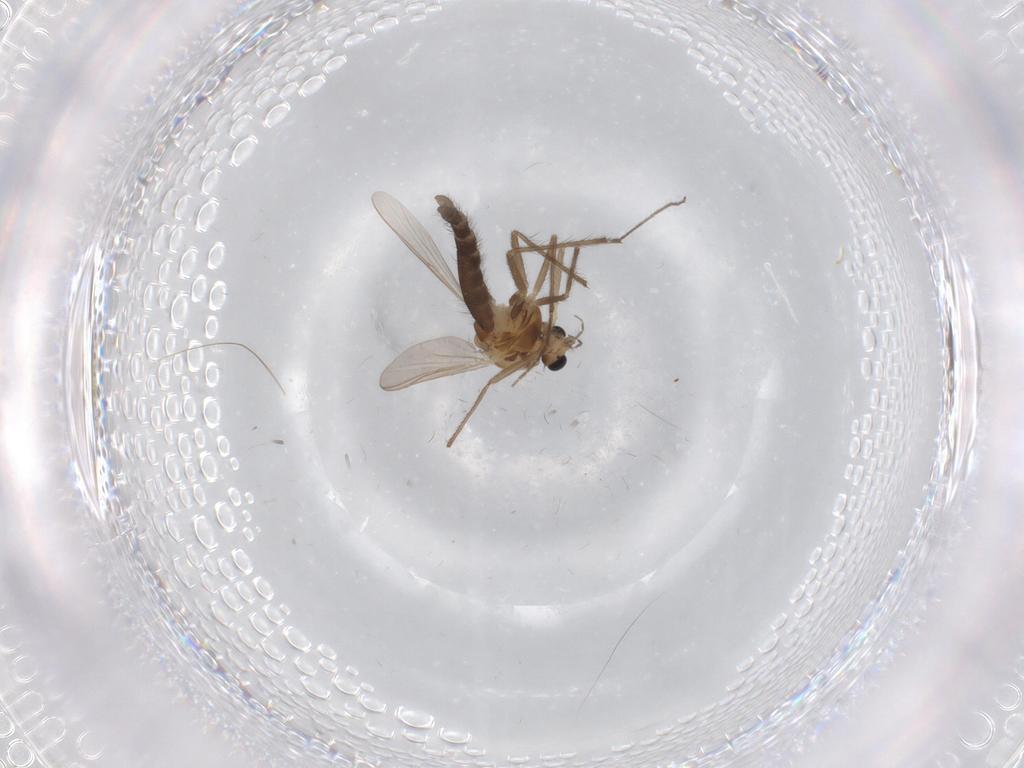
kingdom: Animalia
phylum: Arthropoda
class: Insecta
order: Diptera
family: Chironomidae
